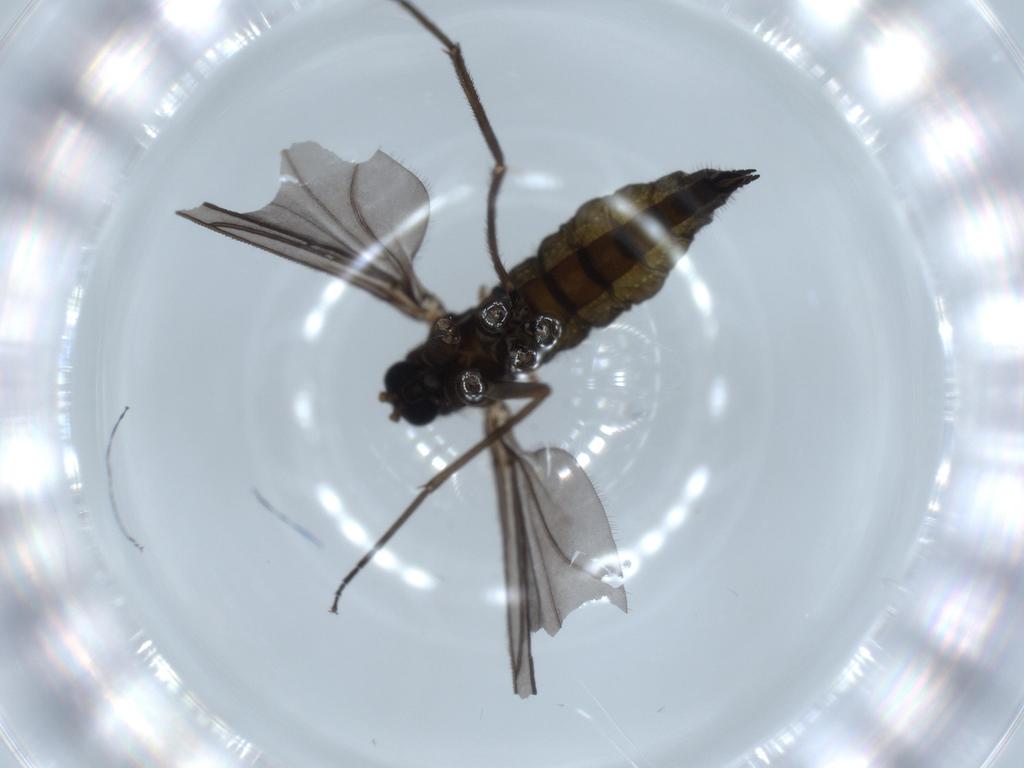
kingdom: Animalia
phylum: Arthropoda
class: Insecta
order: Diptera
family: Sciaridae
